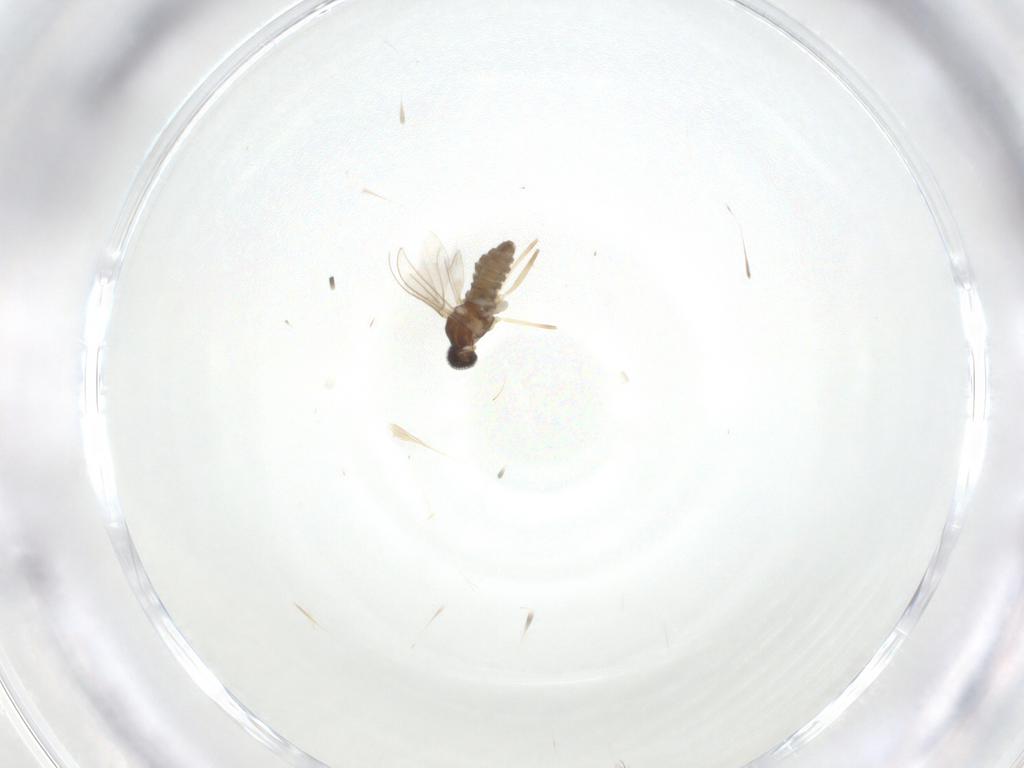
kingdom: Animalia
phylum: Arthropoda
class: Insecta
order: Diptera
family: Cecidomyiidae
